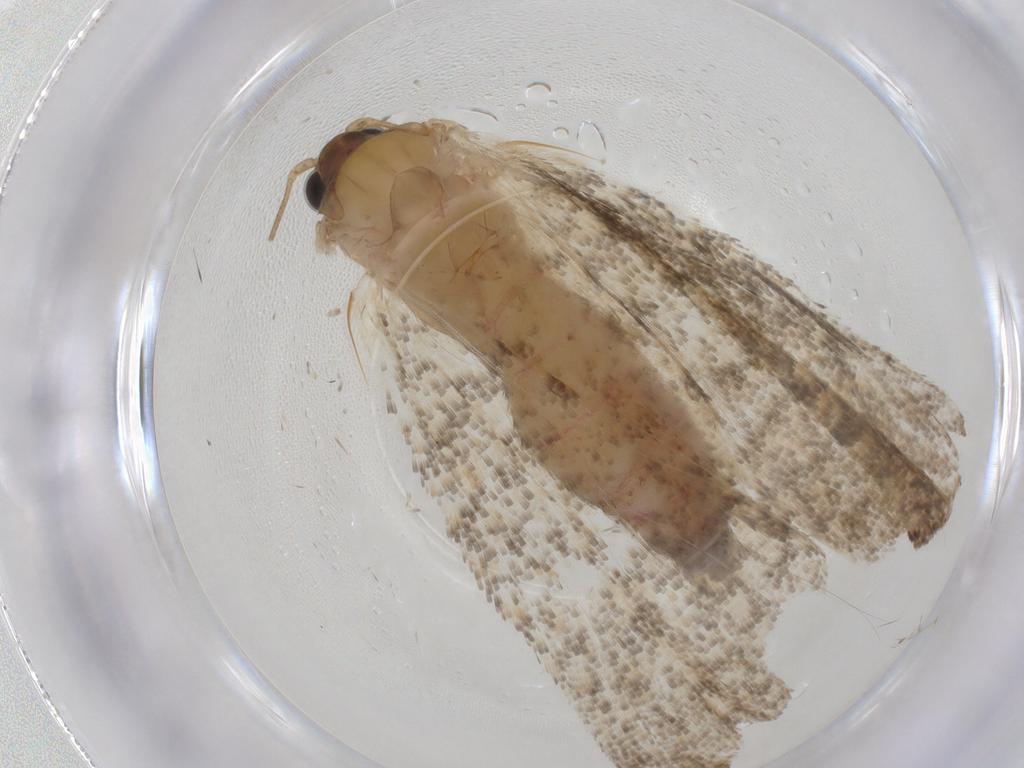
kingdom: Animalia
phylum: Arthropoda
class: Insecta
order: Lepidoptera
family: Tortricidae
